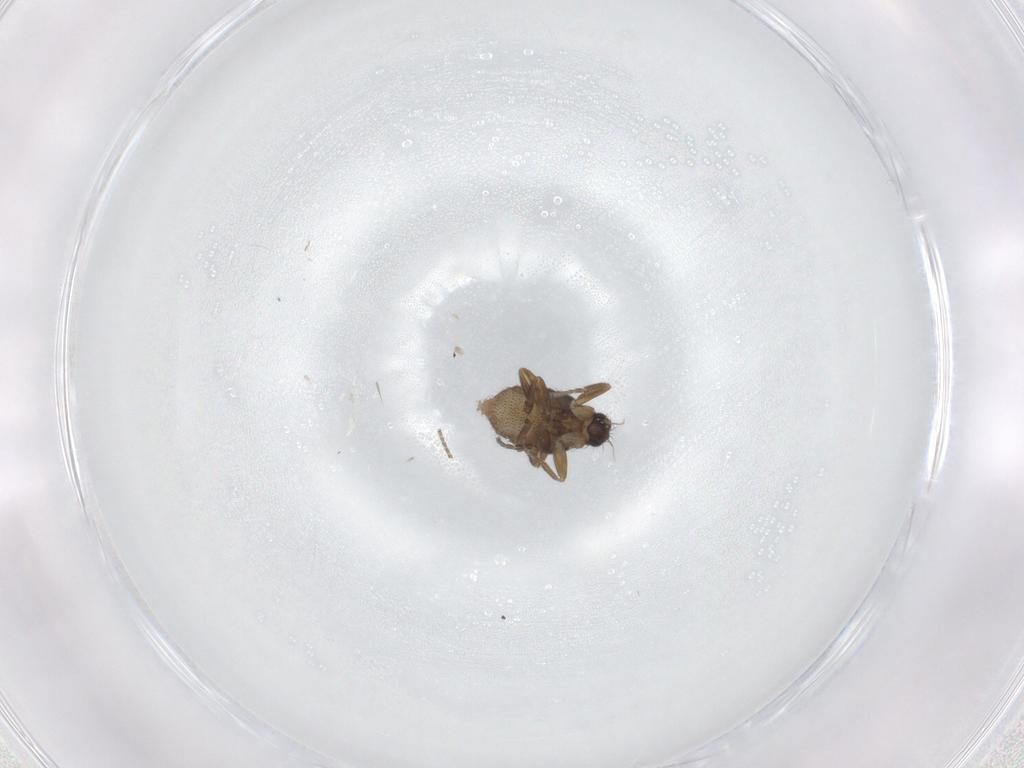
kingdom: Animalia
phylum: Arthropoda
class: Insecta
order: Diptera
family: Phoridae
